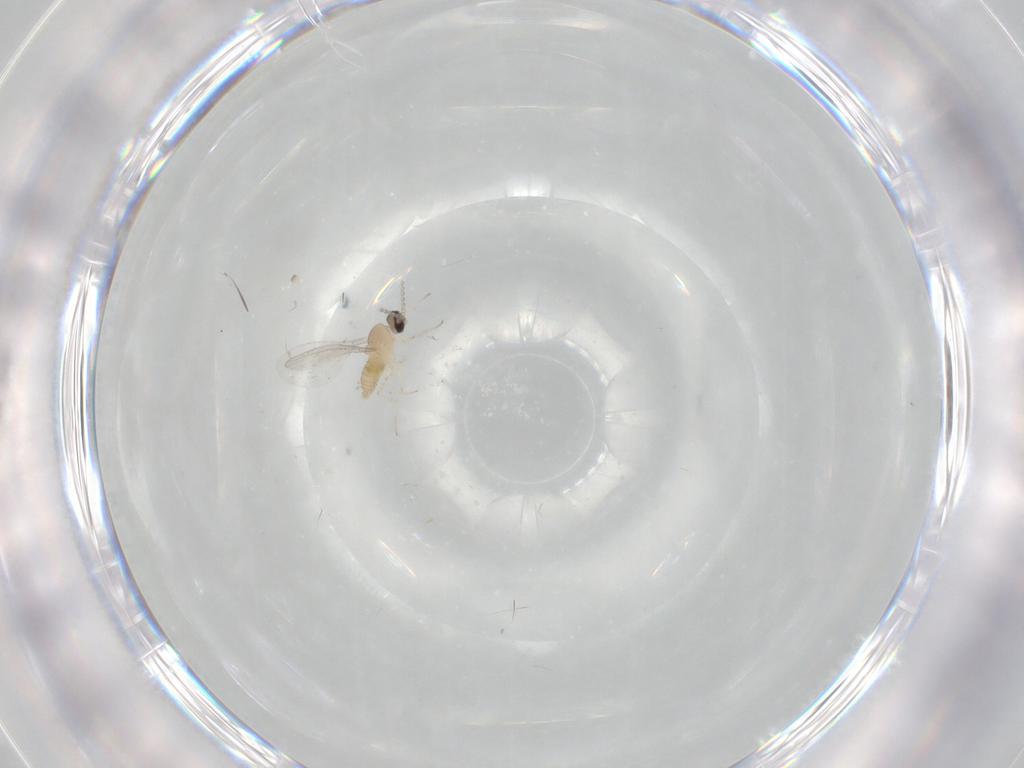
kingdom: Animalia
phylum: Arthropoda
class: Insecta
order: Diptera
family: Cecidomyiidae
